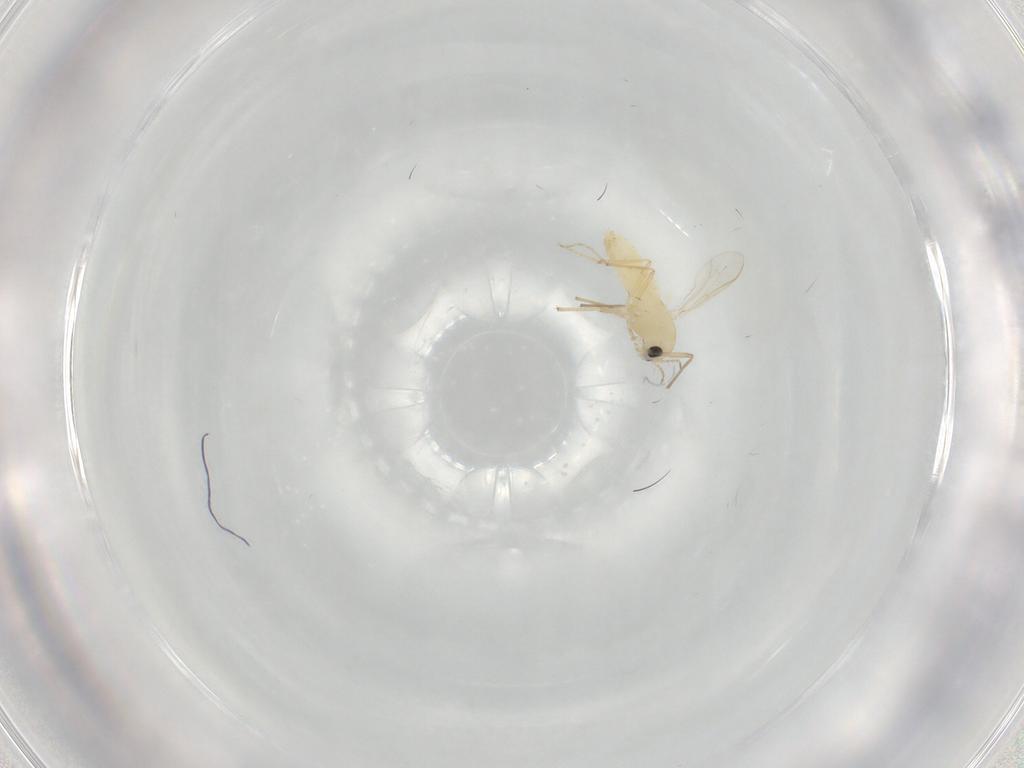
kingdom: Animalia
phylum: Arthropoda
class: Insecta
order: Diptera
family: Chironomidae
